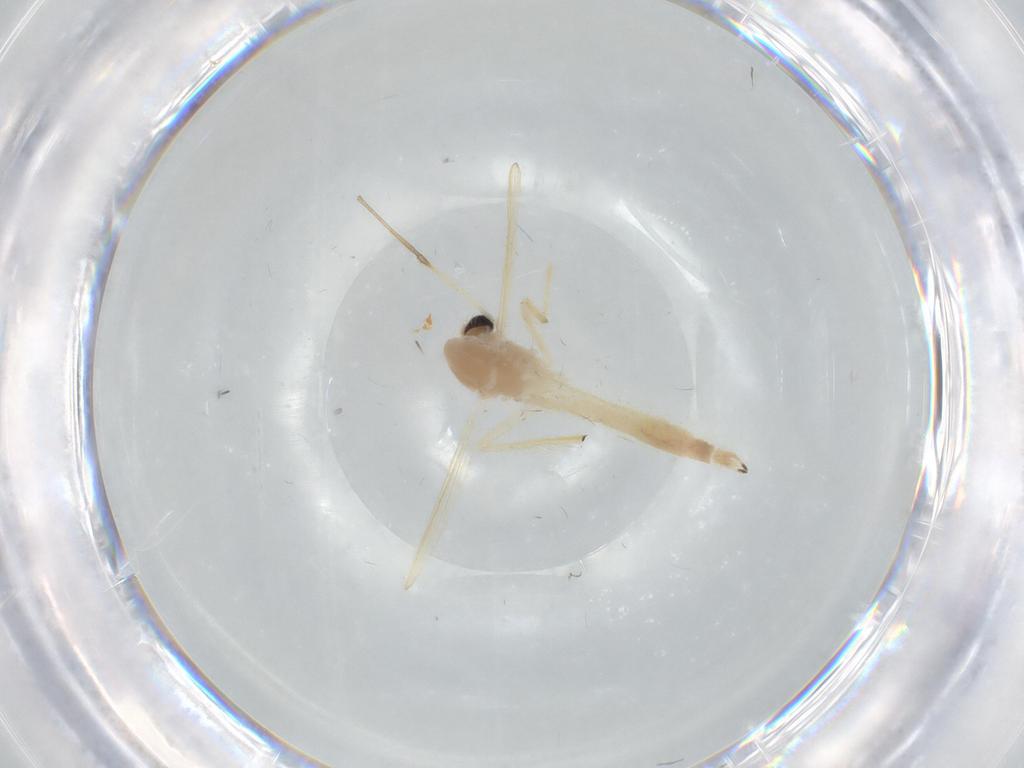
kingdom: Animalia
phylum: Arthropoda
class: Insecta
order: Diptera
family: Chironomidae
